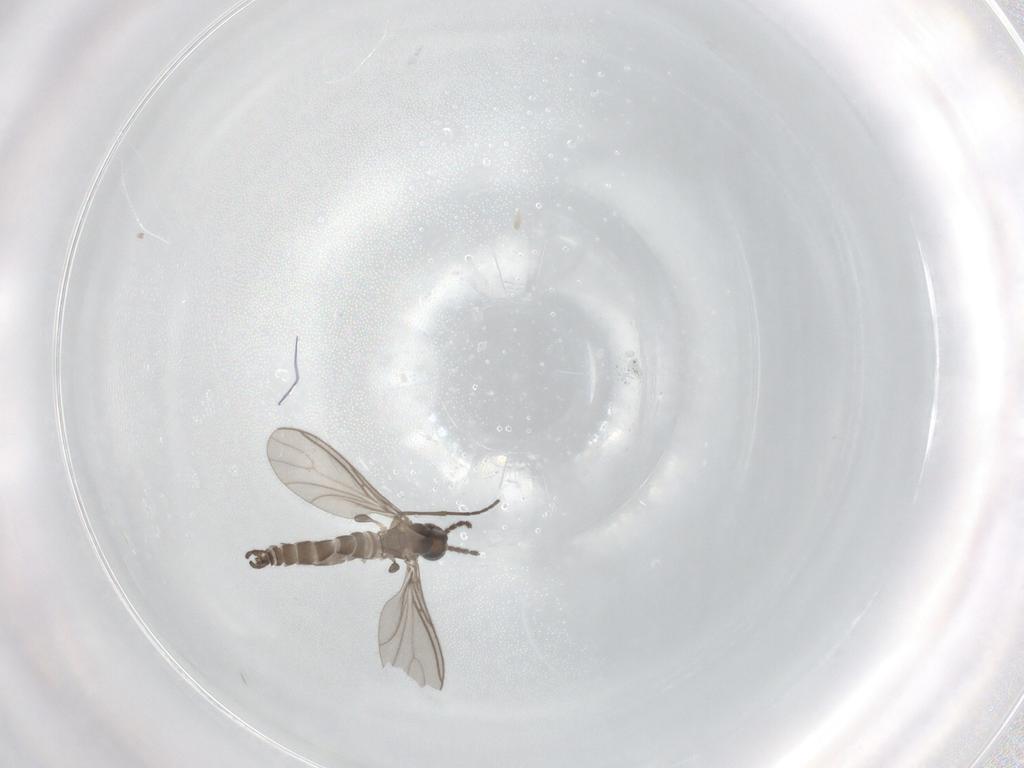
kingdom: Animalia
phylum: Arthropoda
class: Insecta
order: Diptera
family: Sciaridae
